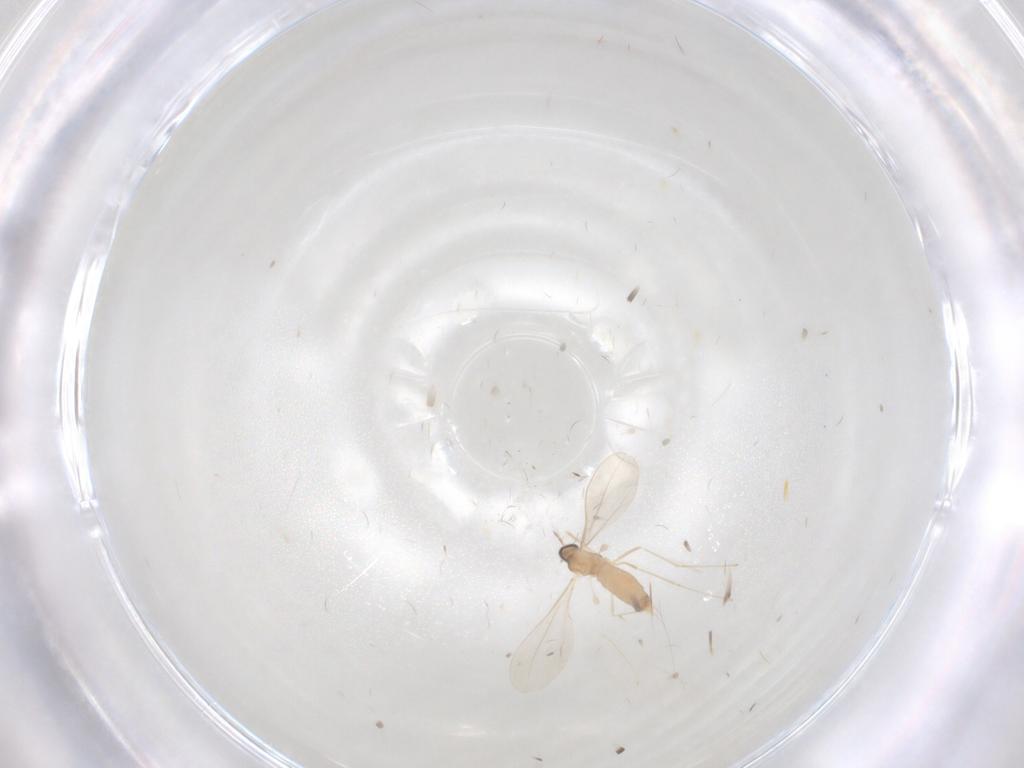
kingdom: Animalia
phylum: Arthropoda
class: Insecta
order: Diptera
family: Cecidomyiidae
